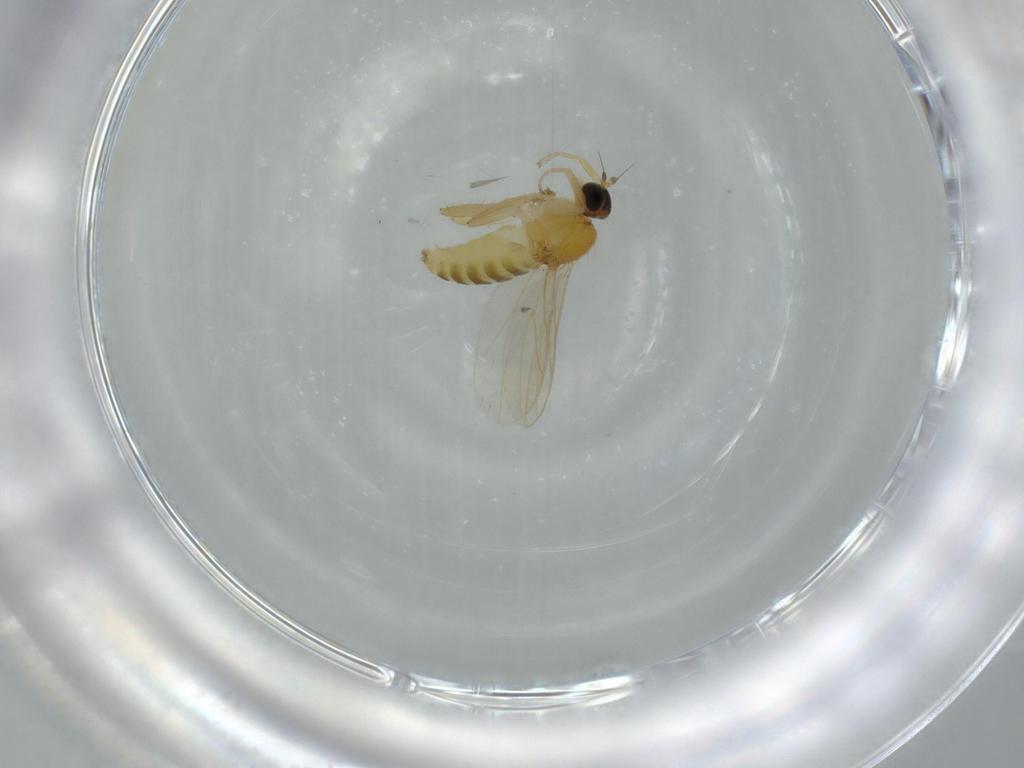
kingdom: Animalia
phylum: Arthropoda
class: Insecta
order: Diptera
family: Hybotidae
